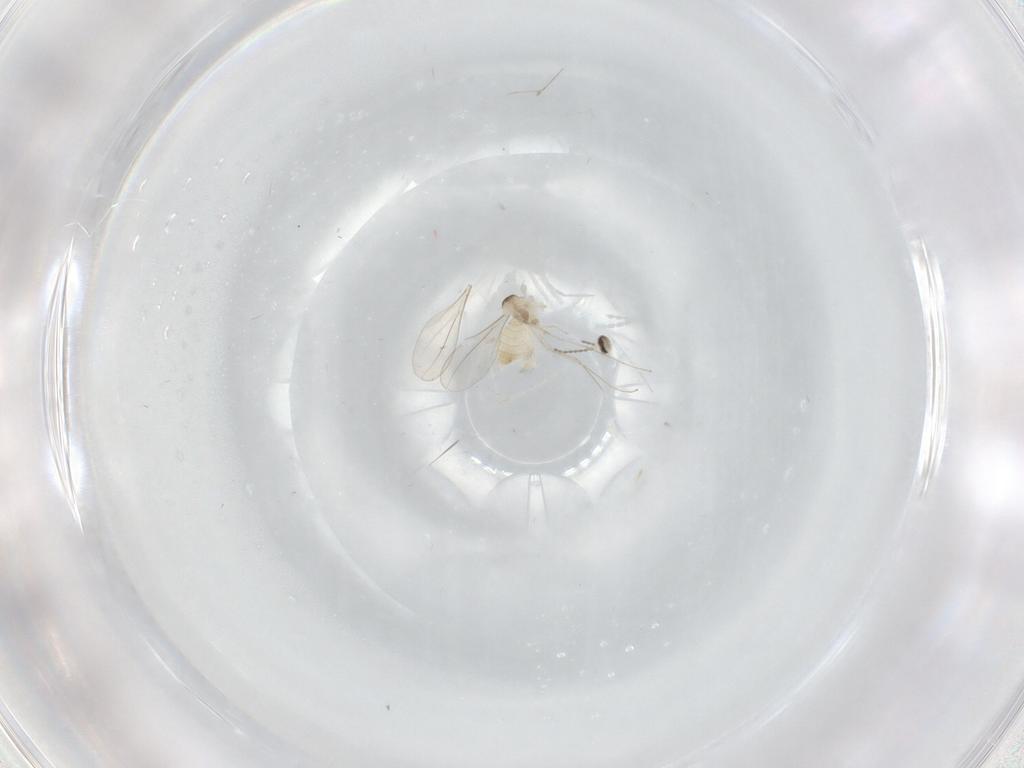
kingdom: Animalia
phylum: Arthropoda
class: Insecta
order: Diptera
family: Cecidomyiidae
